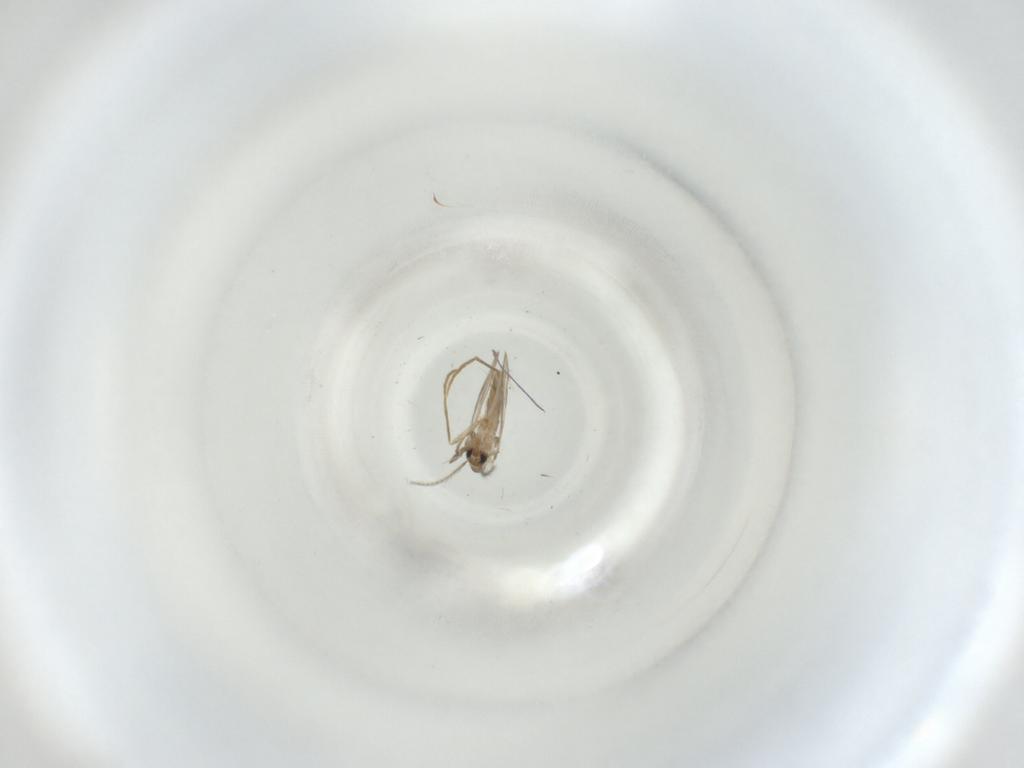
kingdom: Animalia
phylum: Arthropoda
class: Insecta
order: Diptera
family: Psychodidae
